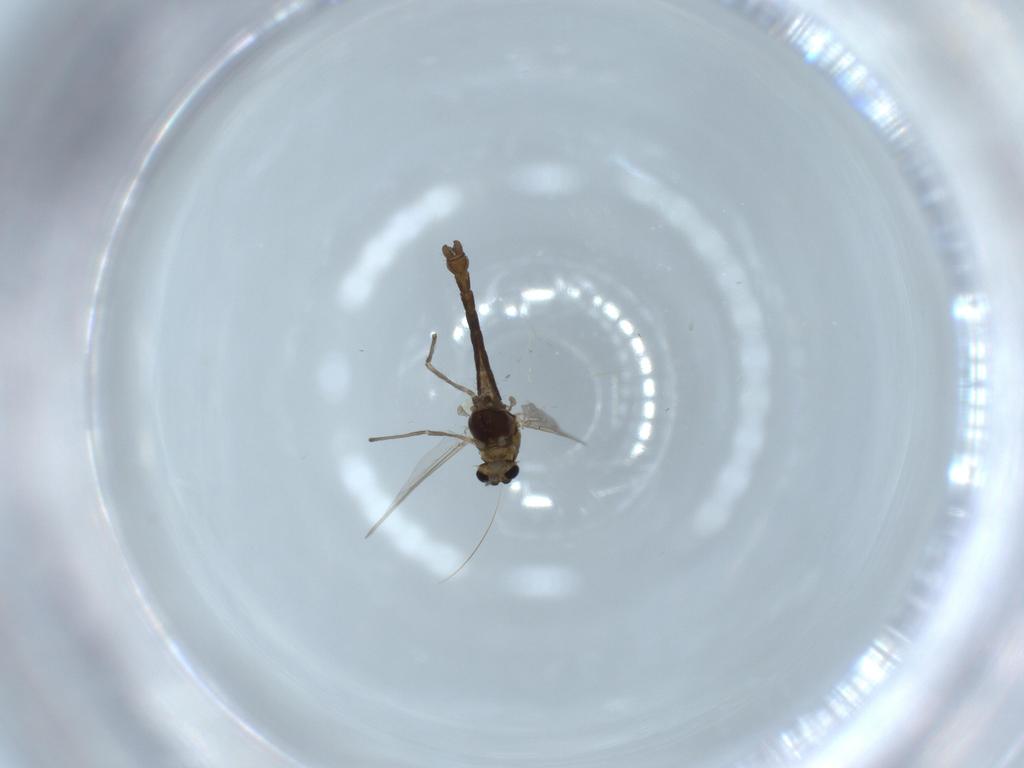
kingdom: Animalia
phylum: Arthropoda
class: Insecta
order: Diptera
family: Chironomidae
